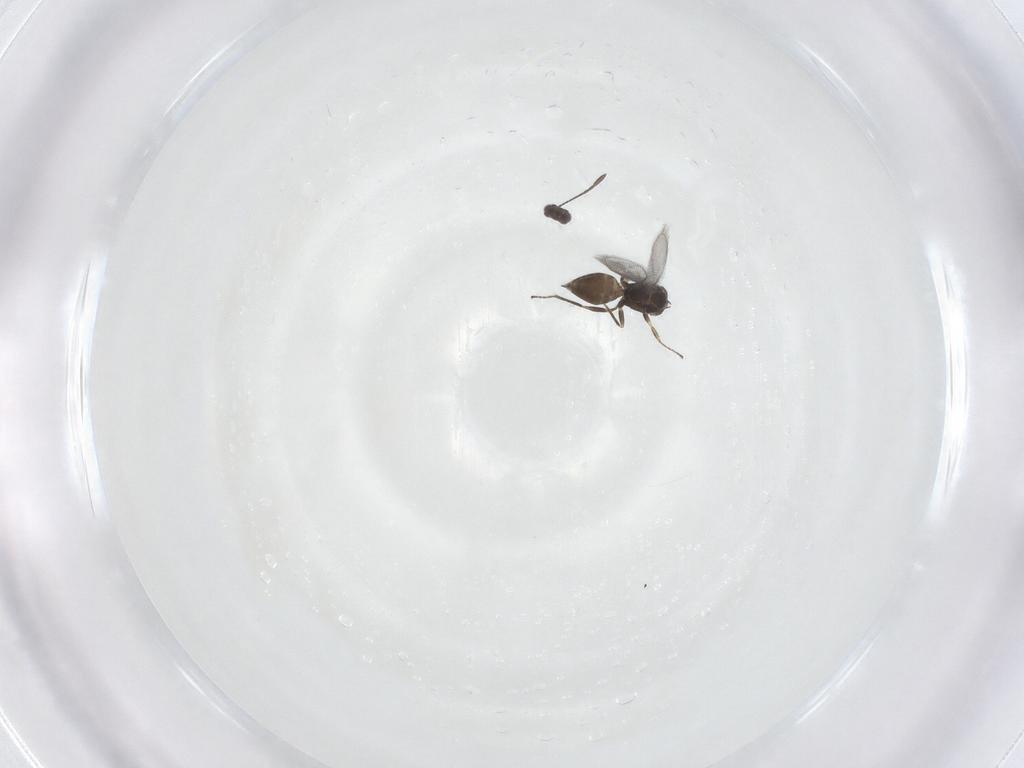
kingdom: Animalia
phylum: Arthropoda
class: Insecta
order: Hymenoptera
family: Mymaridae
